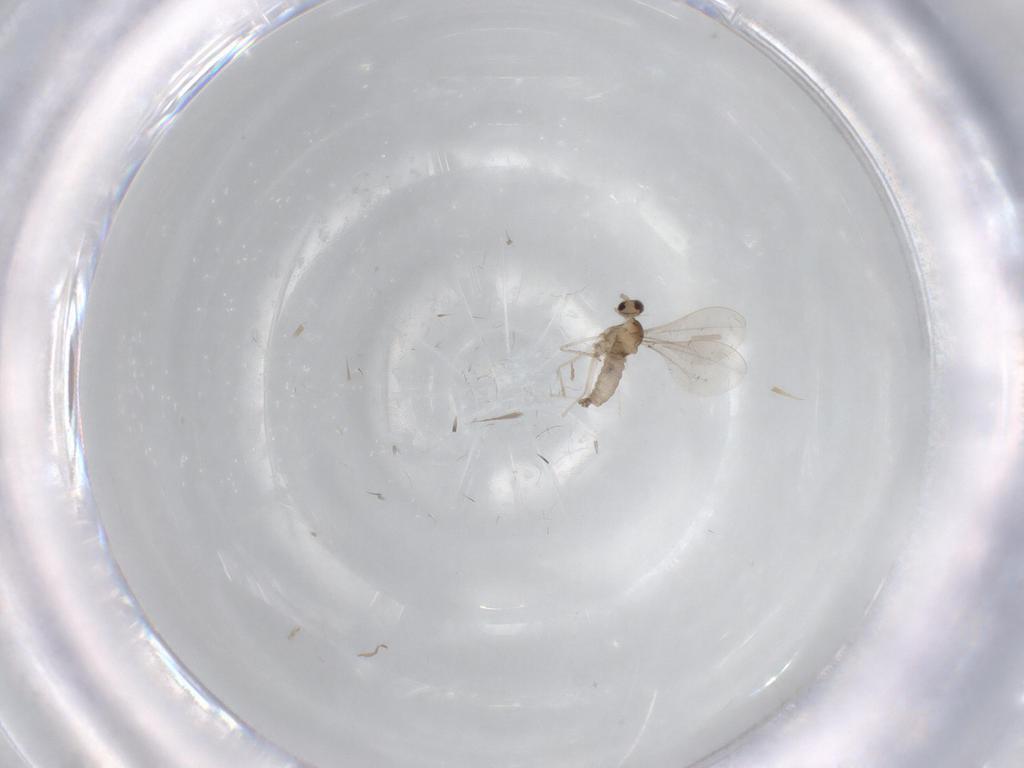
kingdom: Animalia
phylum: Arthropoda
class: Insecta
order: Diptera
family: Cecidomyiidae
